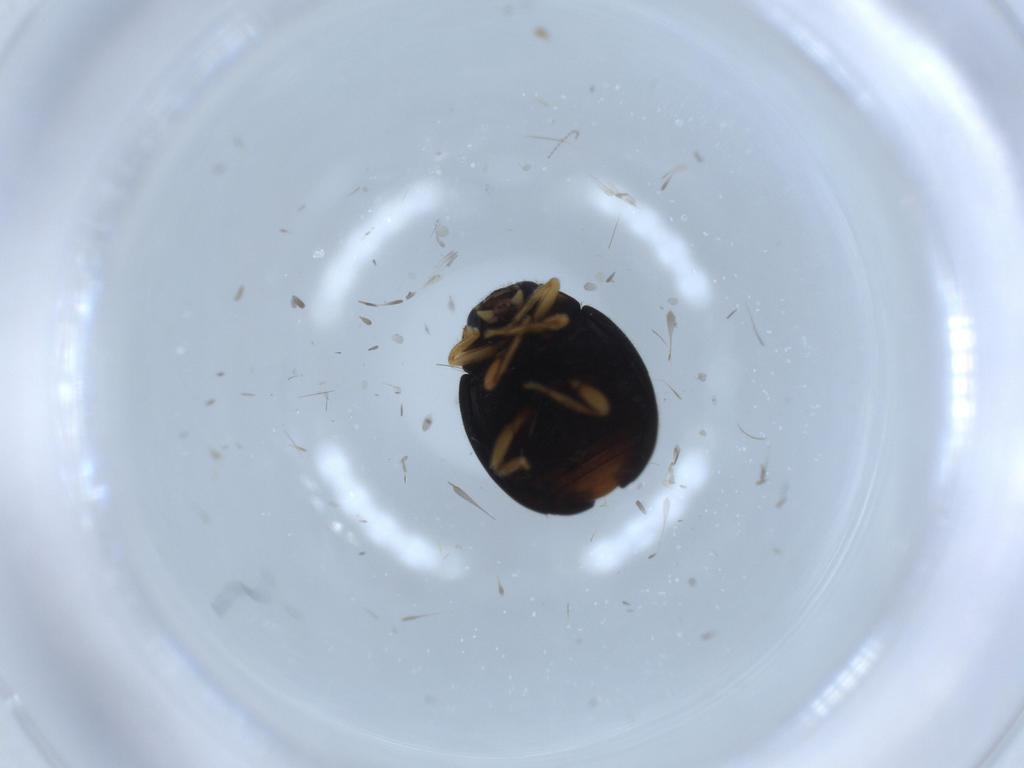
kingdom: Animalia
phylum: Arthropoda
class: Insecta
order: Coleoptera
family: Coccinellidae
